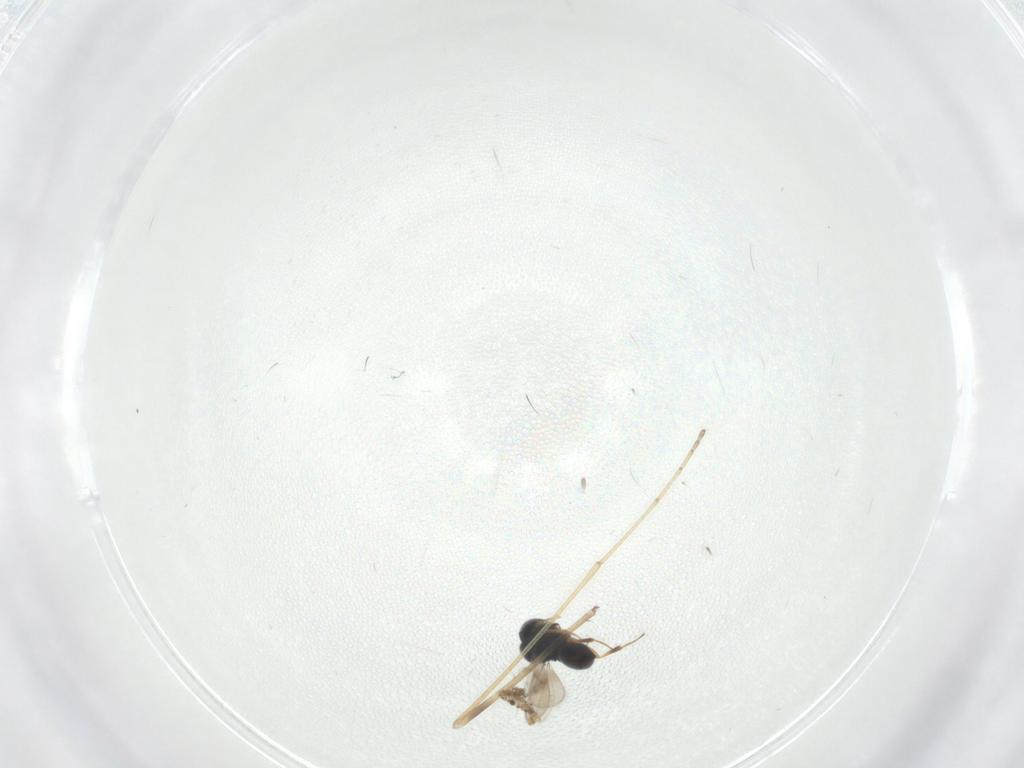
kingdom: Animalia
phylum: Arthropoda
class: Insecta
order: Hymenoptera
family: Scelionidae
